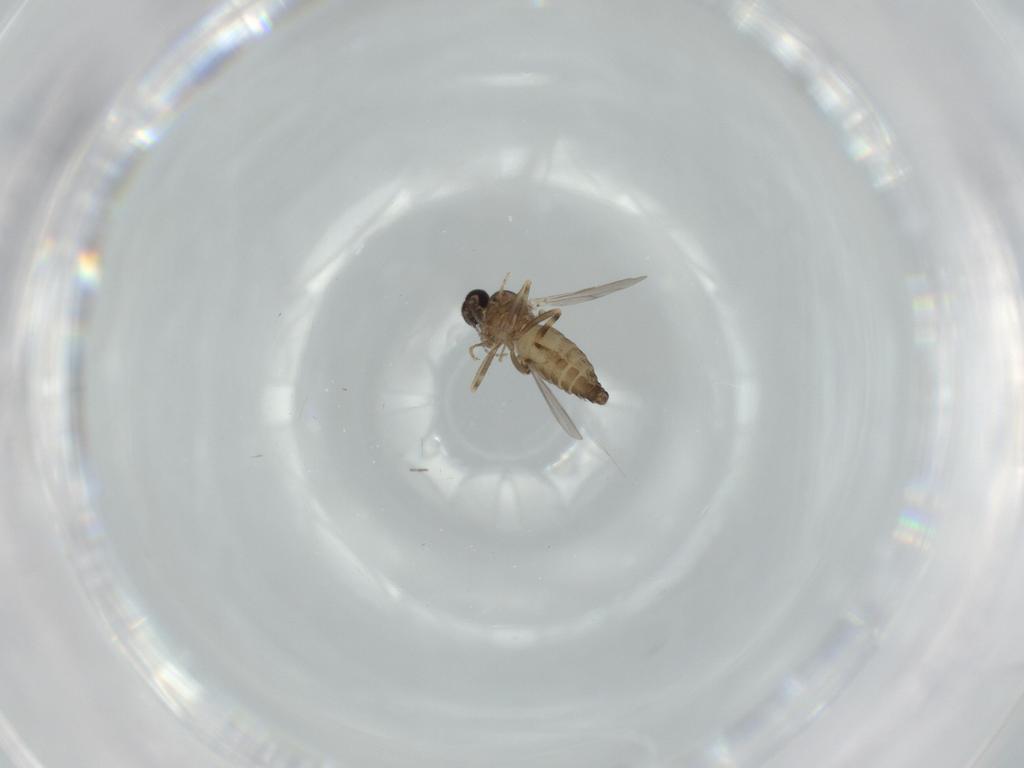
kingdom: Animalia
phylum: Arthropoda
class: Insecta
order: Diptera
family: Ceratopogonidae
